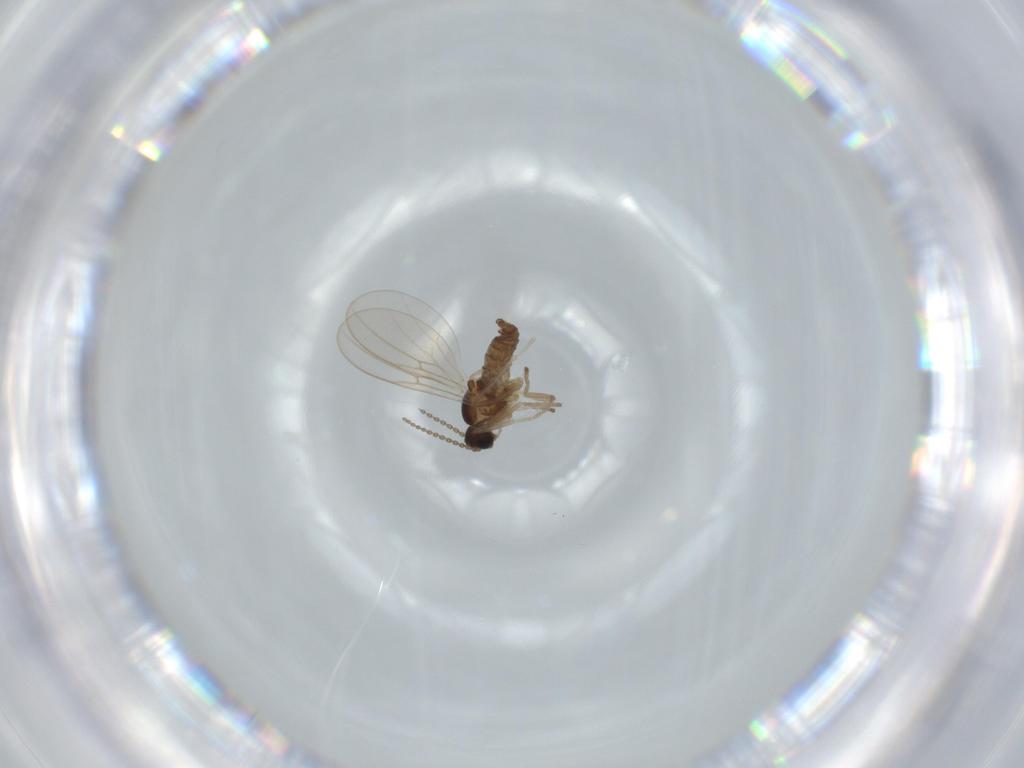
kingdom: Animalia
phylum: Arthropoda
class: Insecta
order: Diptera
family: Cecidomyiidae
